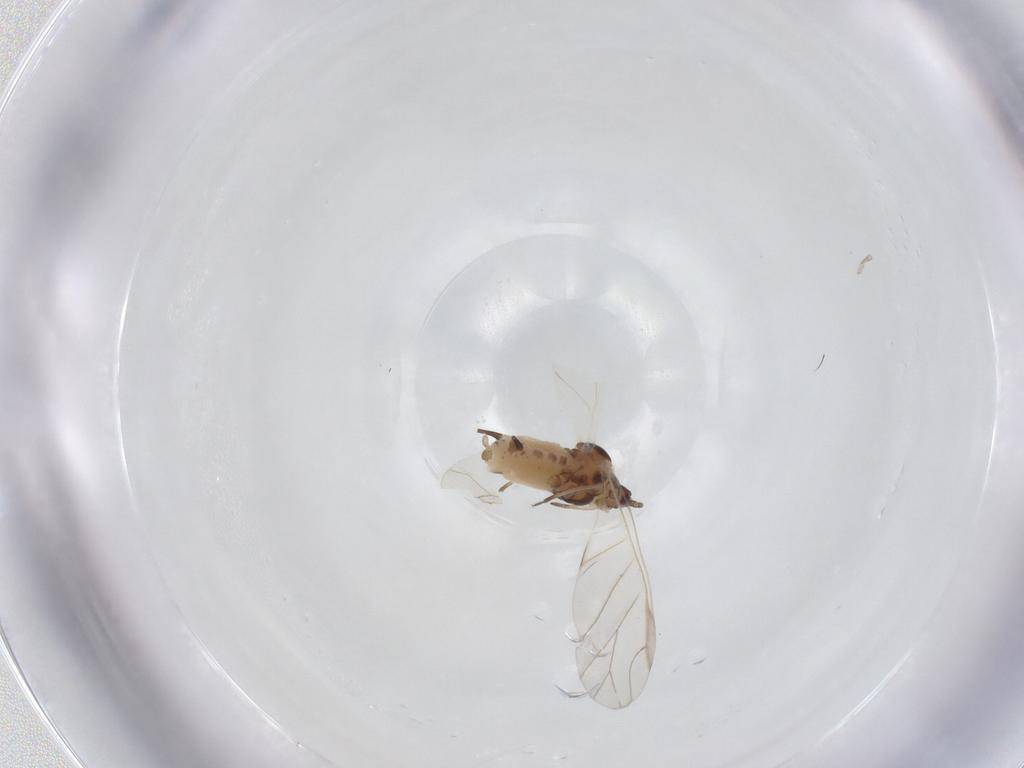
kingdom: Animalia
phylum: Arthropoda
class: Insecta
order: Hemiptera
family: Aphididae
